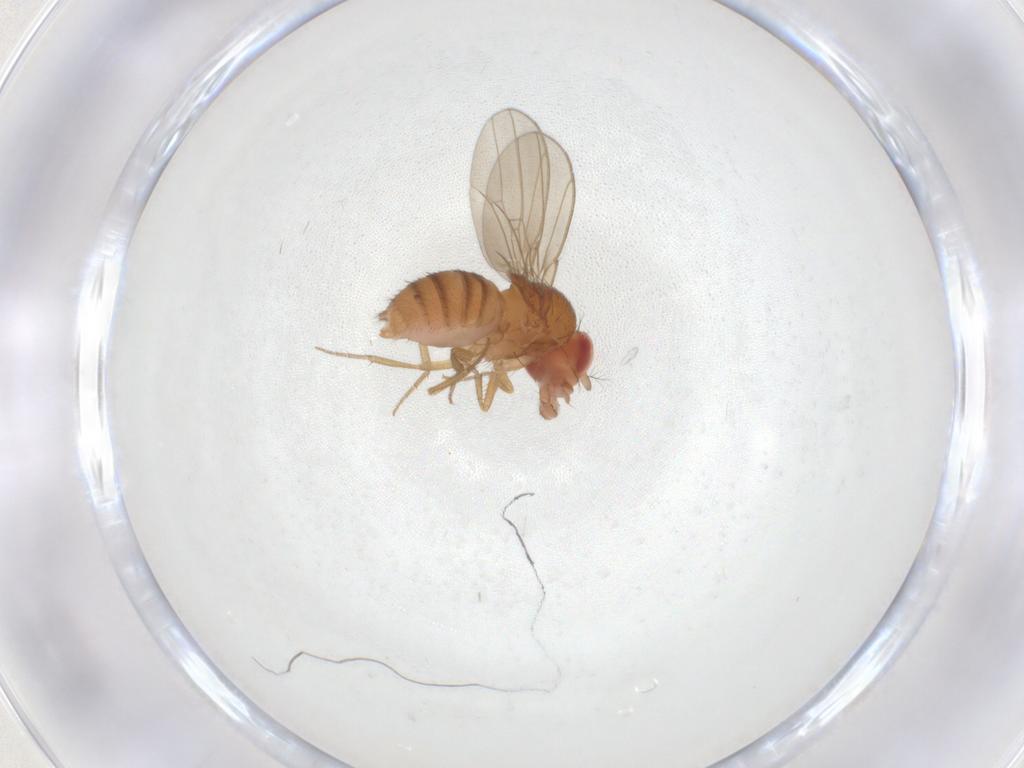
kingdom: Animalia
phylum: Arthropoda
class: Insecta
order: Diptera
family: Drosophilidae
